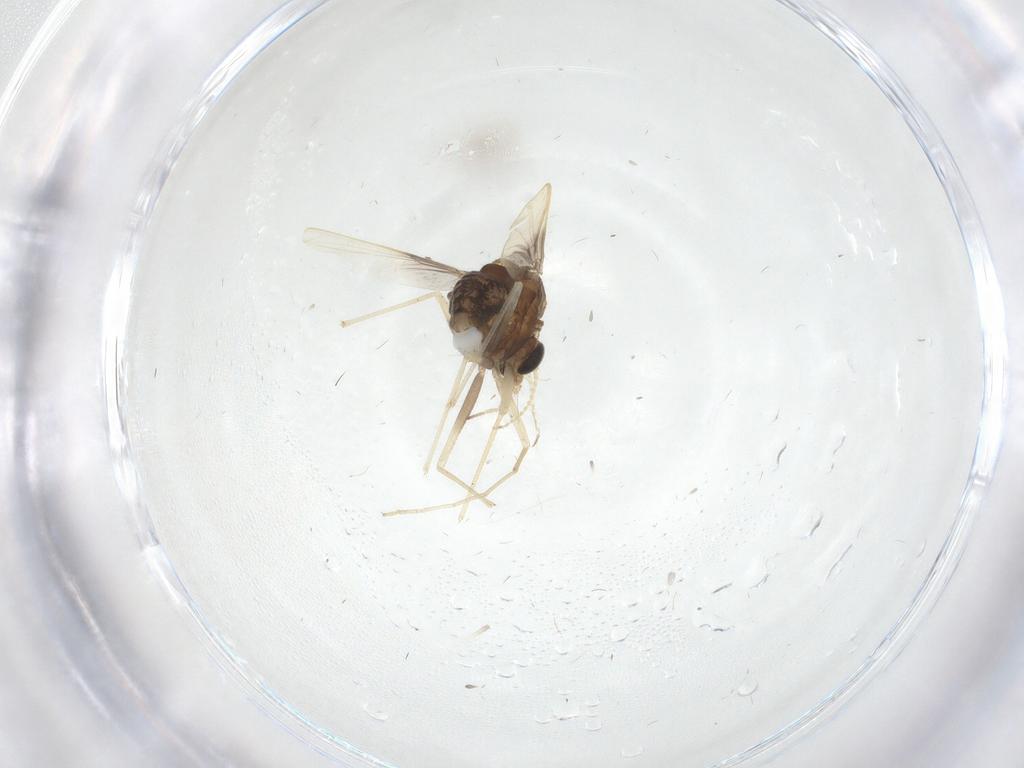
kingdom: Animalia
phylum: Arthropoda
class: Insecta
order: Diptera
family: Chironomidae
